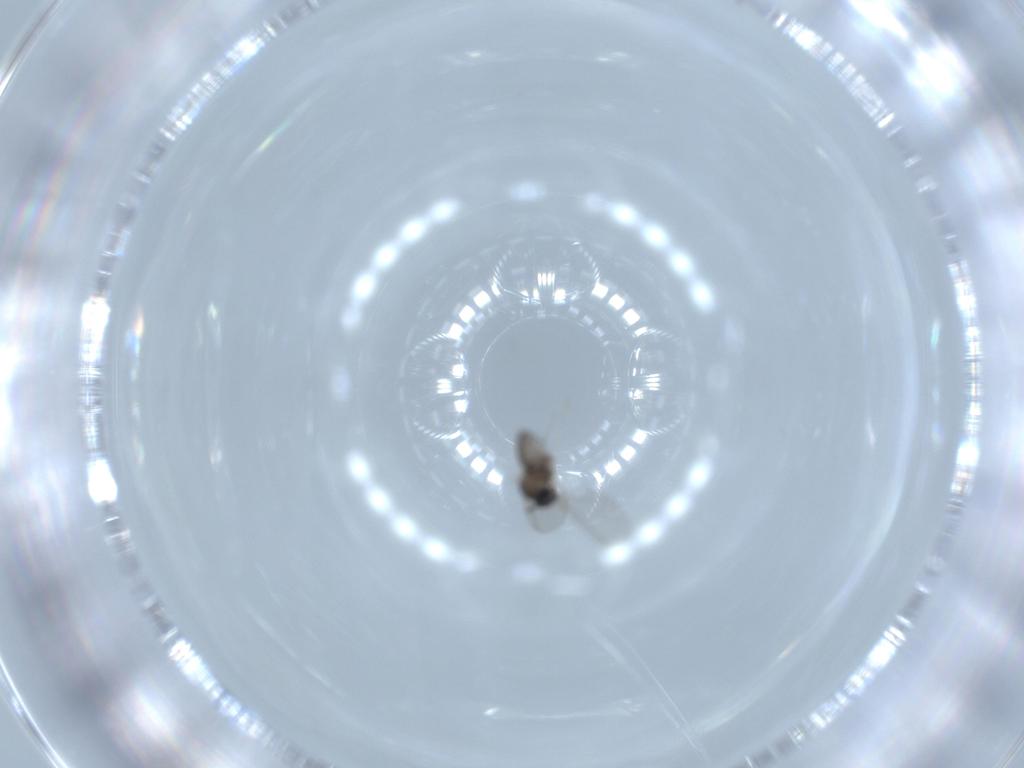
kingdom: Animalia
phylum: Arthropoda
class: Insecta
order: Diptera
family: Cecidomyiidae
